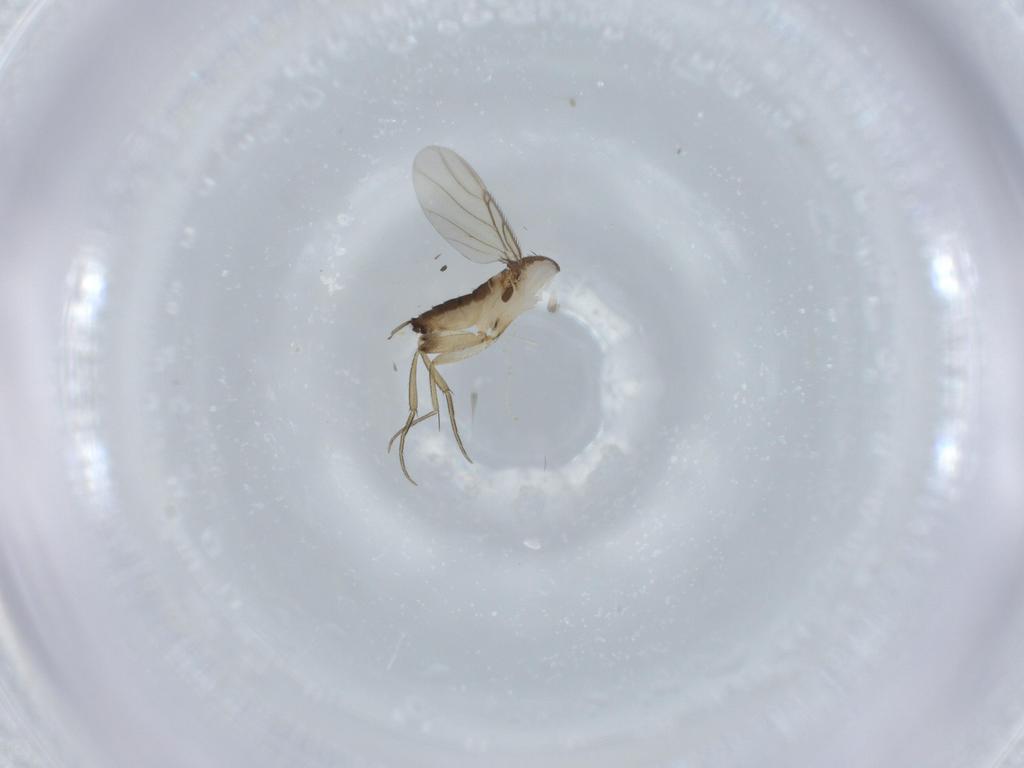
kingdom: Animalia
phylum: Arthropoda
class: Insecta
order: Diptera
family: Phoridae
